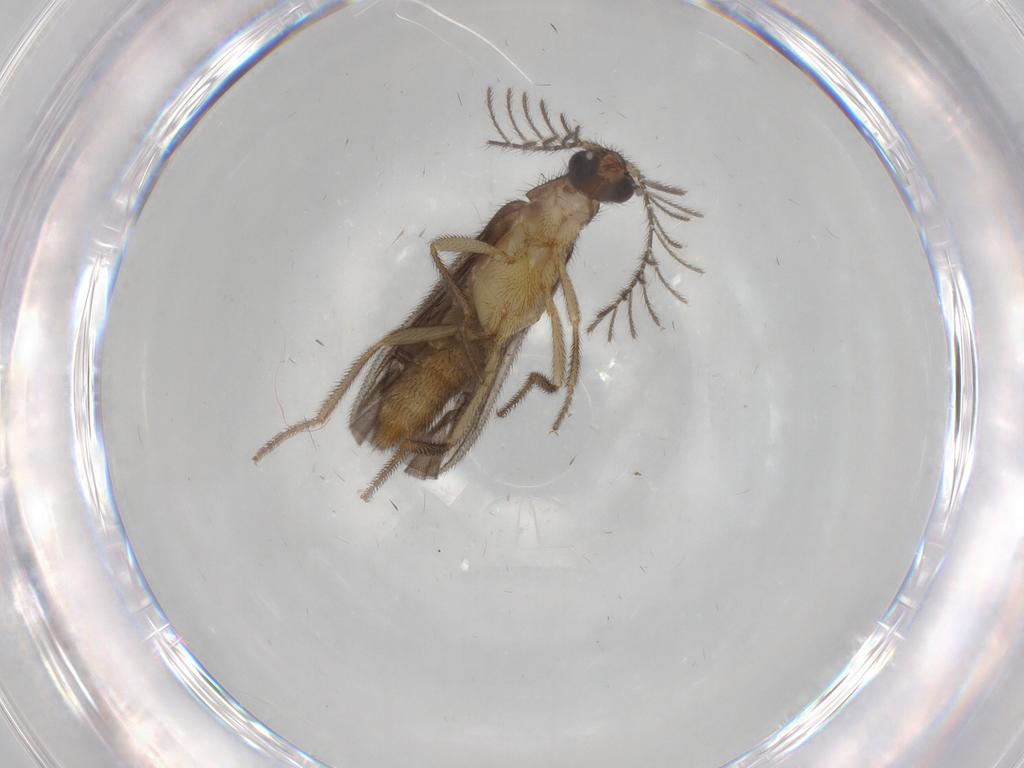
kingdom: Animalia
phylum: Arthropoda
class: Insecta
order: Coleoptera
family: Phengodidae
